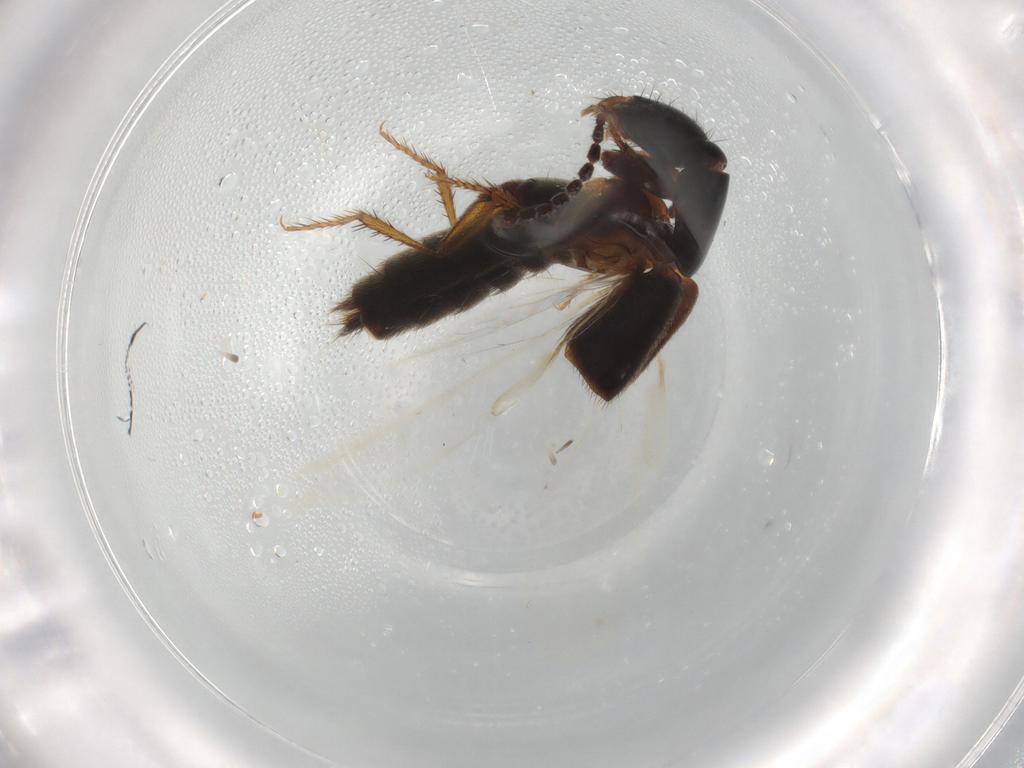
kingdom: Animalia
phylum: Arthropoda
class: Insecta
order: Coleoptera
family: Staphylinidae
